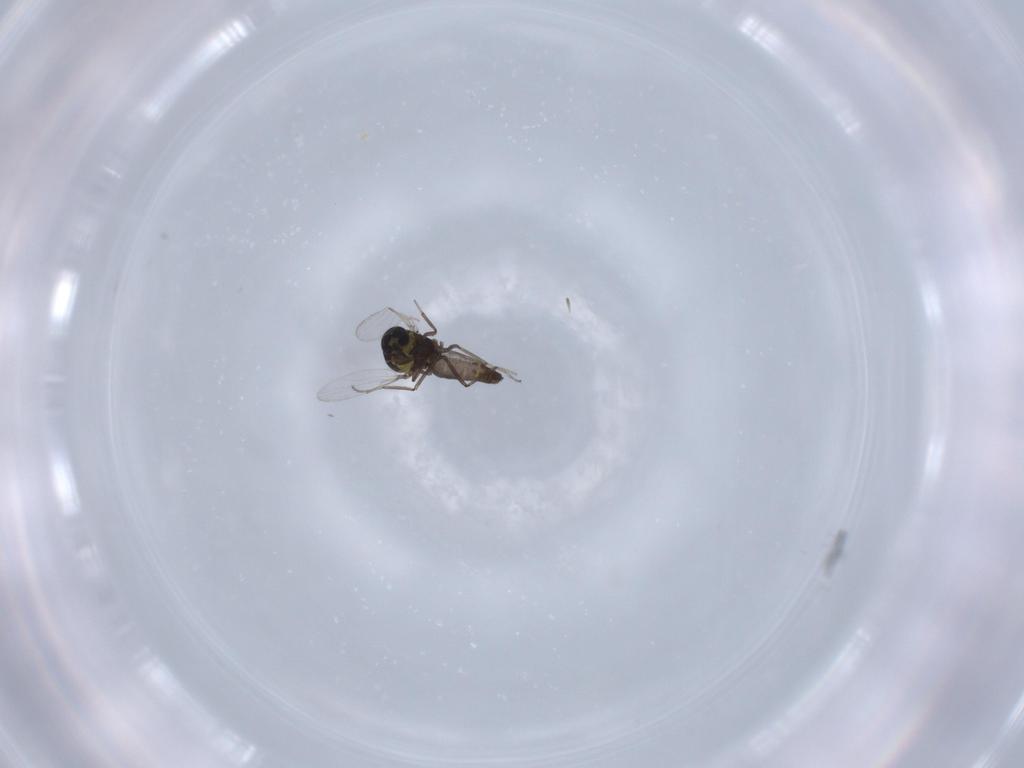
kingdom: Animalia
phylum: Arthropoda
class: Insecta
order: Diptera
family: Ceratopogonidae
